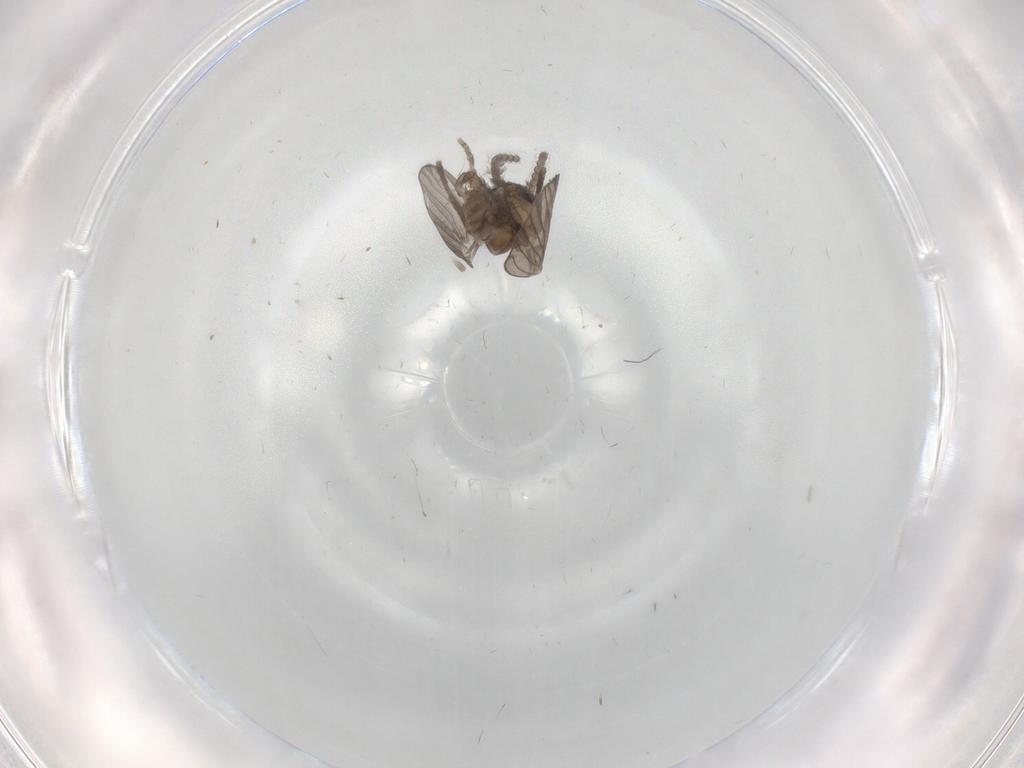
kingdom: Animalia
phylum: Arthropoda
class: Insecta
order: Diptera
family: Psychodidae
